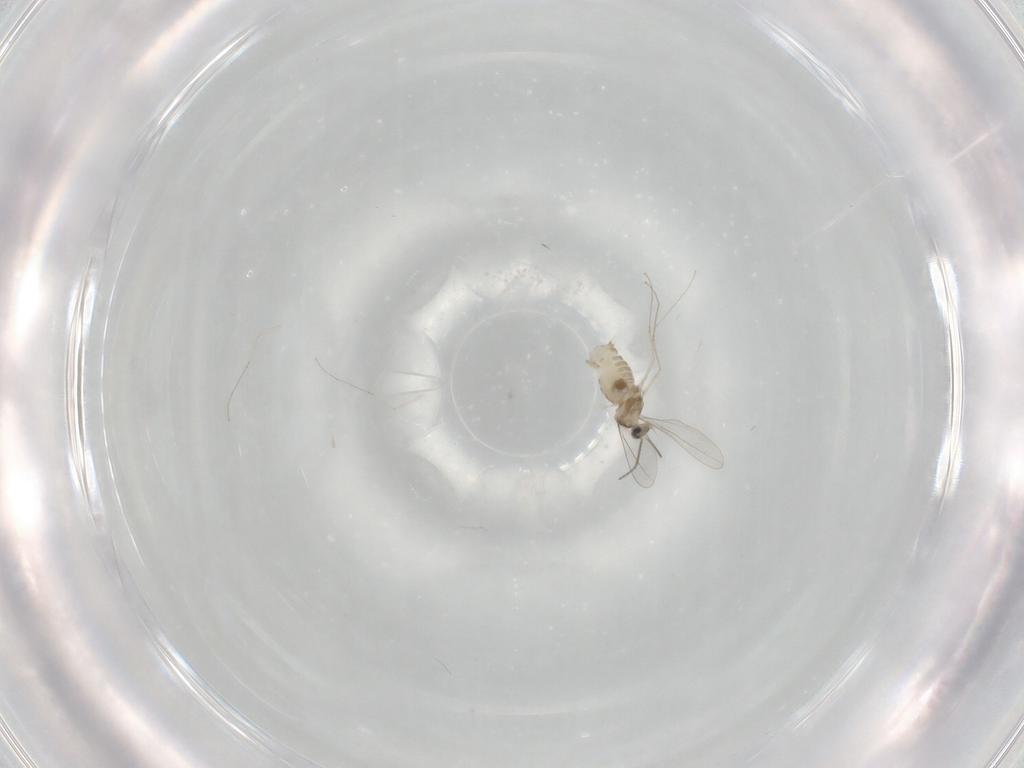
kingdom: Animalia
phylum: Arthropoda
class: Insecta
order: Diptera
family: Cecidomyiidae
